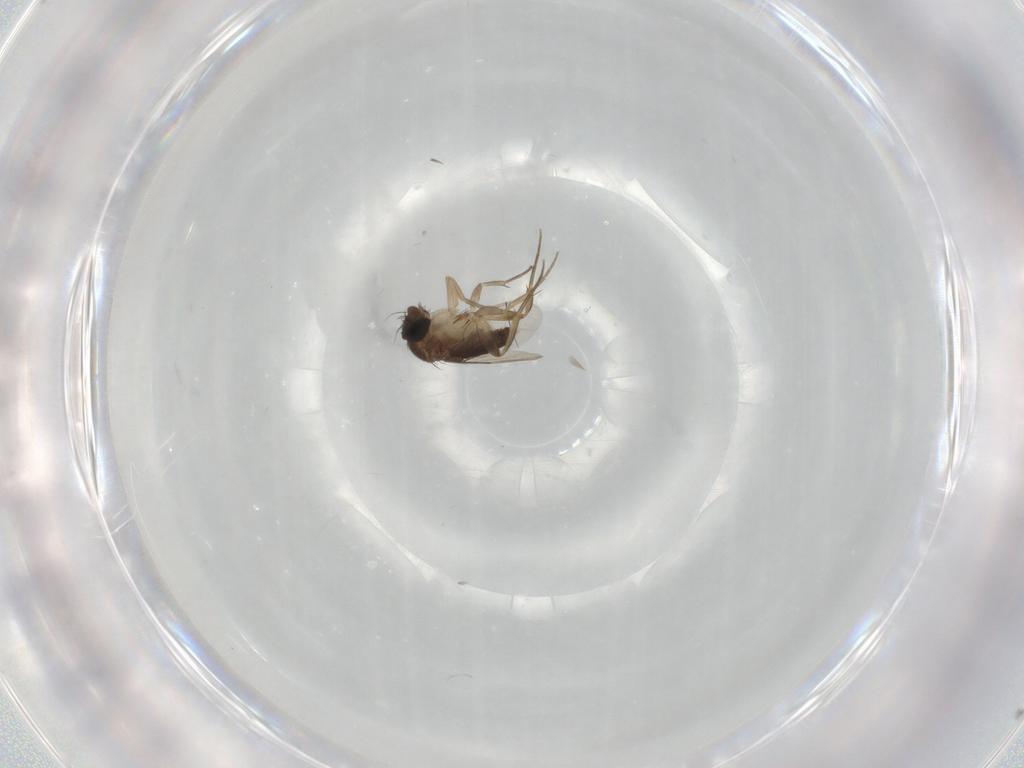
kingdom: Animalia
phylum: Arthropoda
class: Insecta
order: Diptera
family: Phoridae
